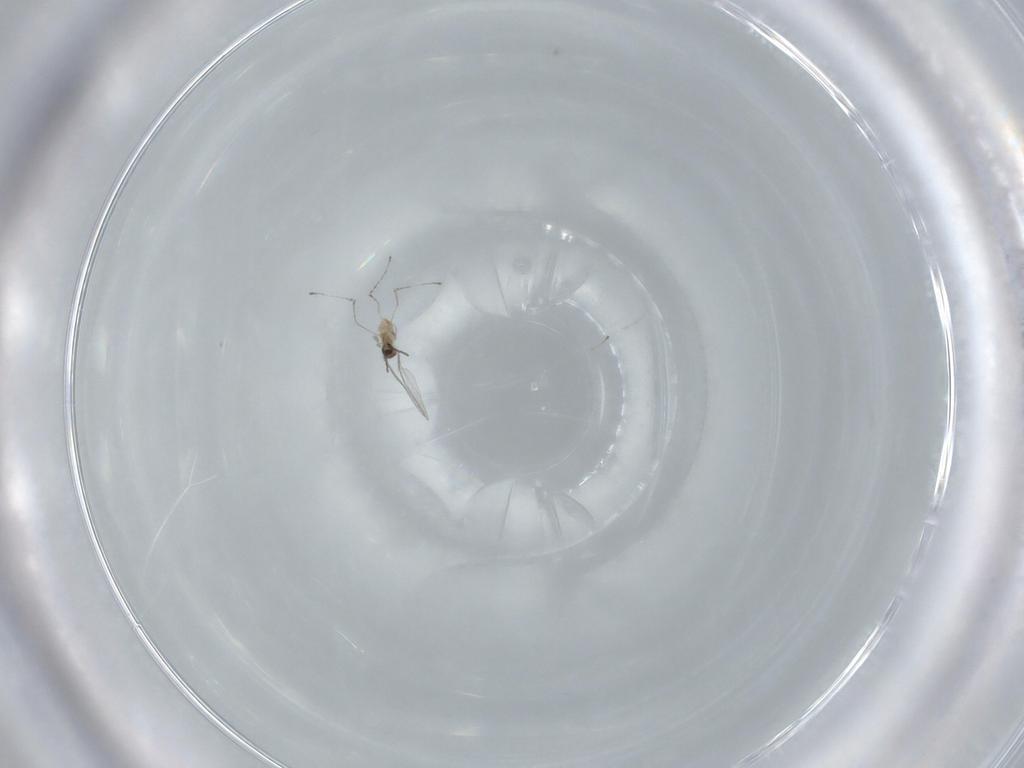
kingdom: Animalia
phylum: Arthropoda
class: Insecta
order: Diptera
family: Cecidomyiidae
